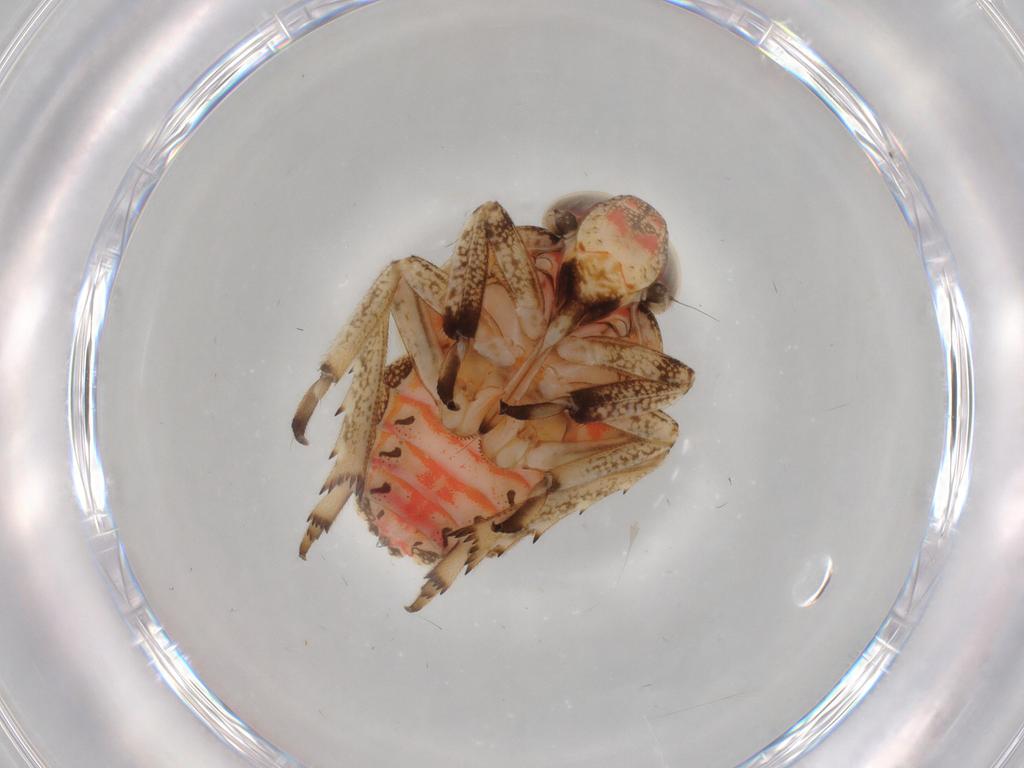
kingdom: Animalia
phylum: Arthropoda
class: Insecta
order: Hemiptera
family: Issidae
